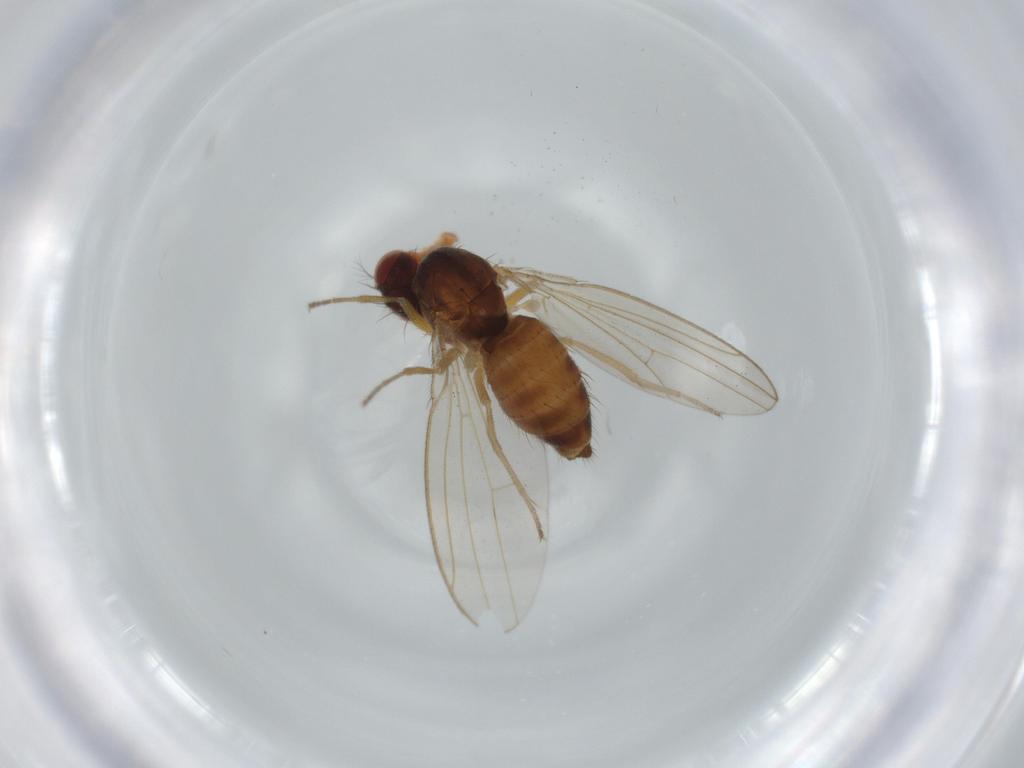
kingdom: Animalia
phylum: Arthropoda
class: Insecta
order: Diptera
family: Drosophilidae
